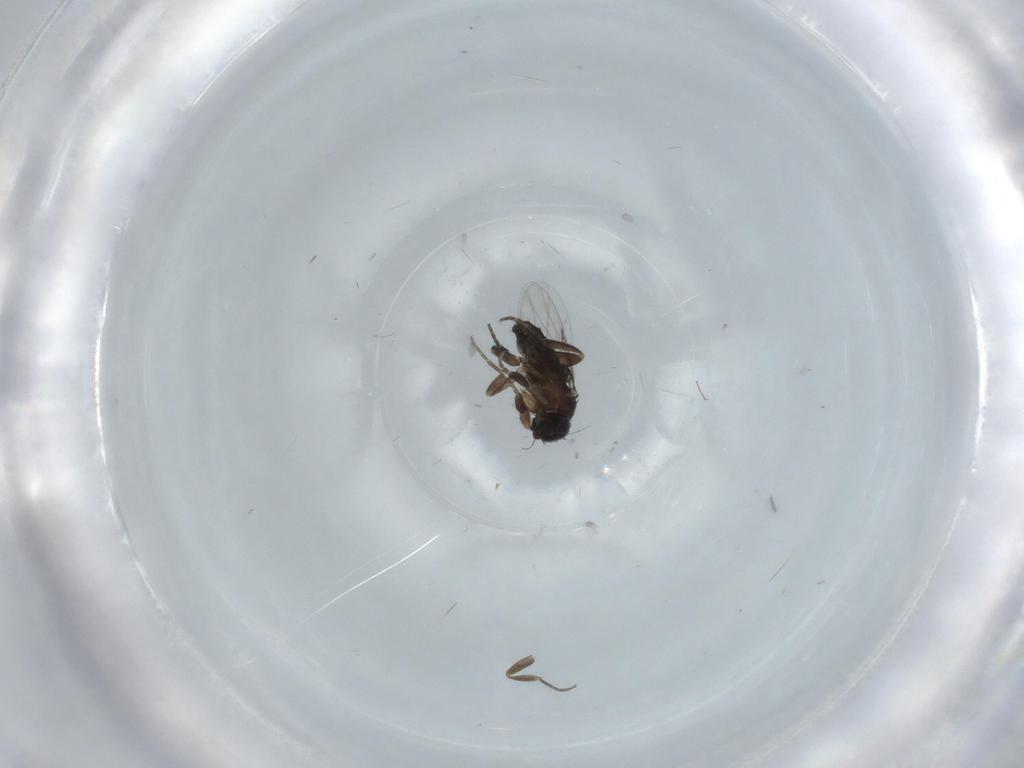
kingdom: Animalia
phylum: Arthropoda
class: Insecta
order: Diptera
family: Phoridae
